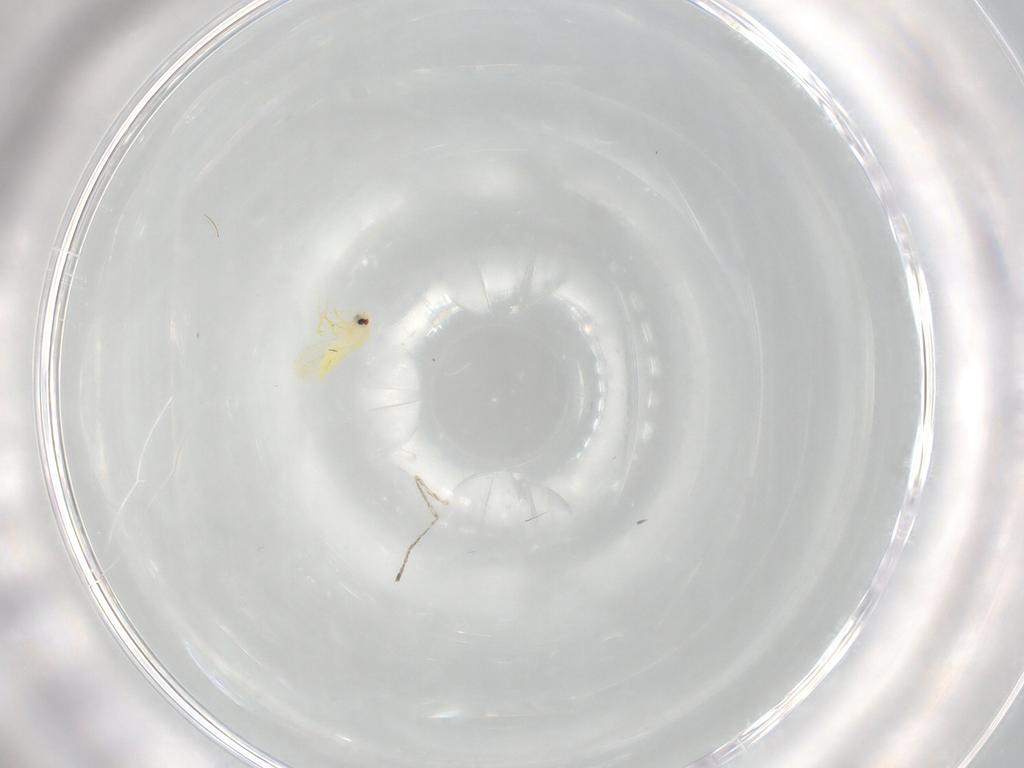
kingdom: Animalia
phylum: Arthropoda
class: Insecta
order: Hemiptera
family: Aleyrodidae
